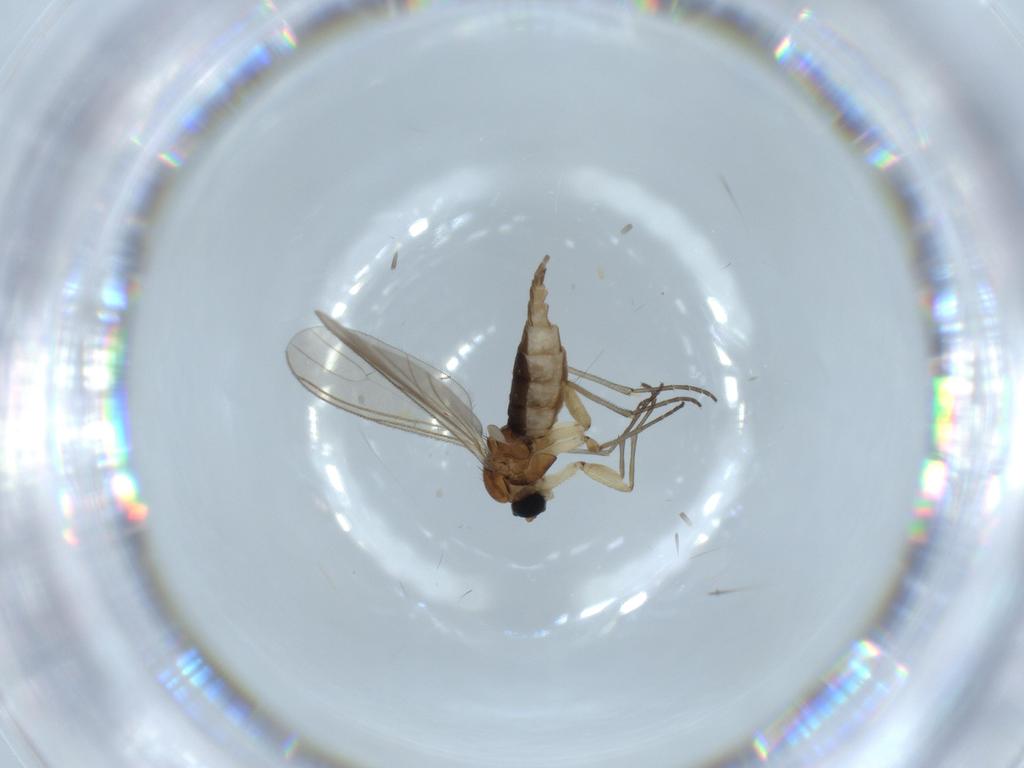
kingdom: Animalia
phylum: Arthropoda
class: Insecta
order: Diptera
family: Sciaridae
